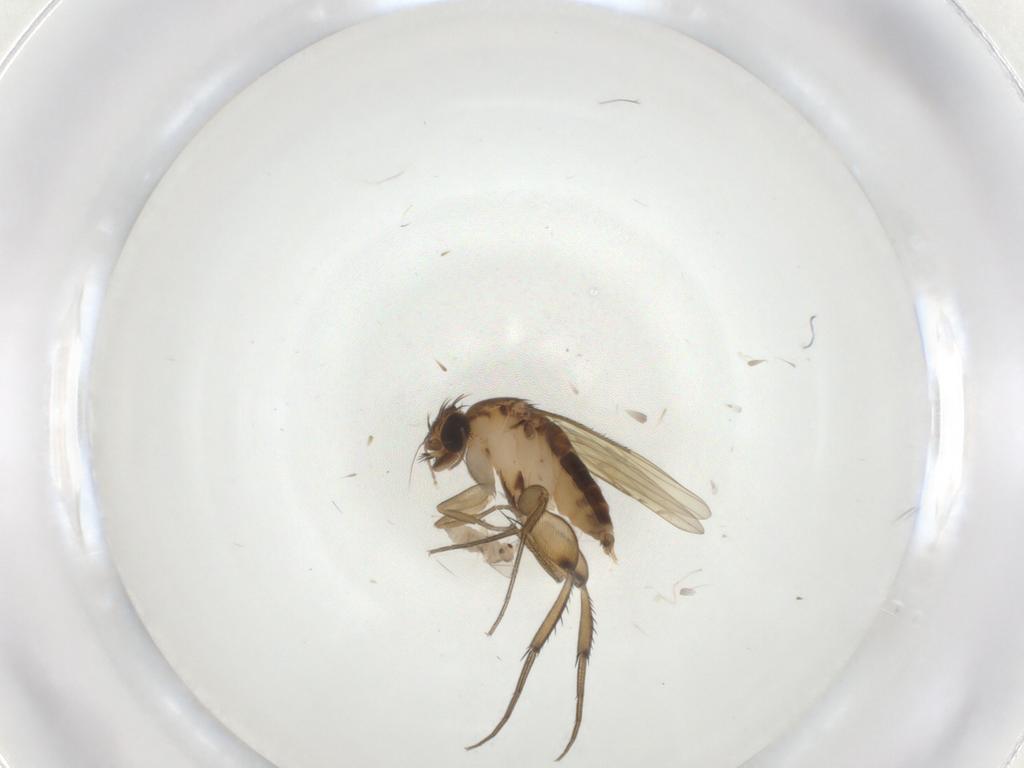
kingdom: Animalia
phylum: Arthropoda
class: Insecta
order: Diptera
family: Phoridae
